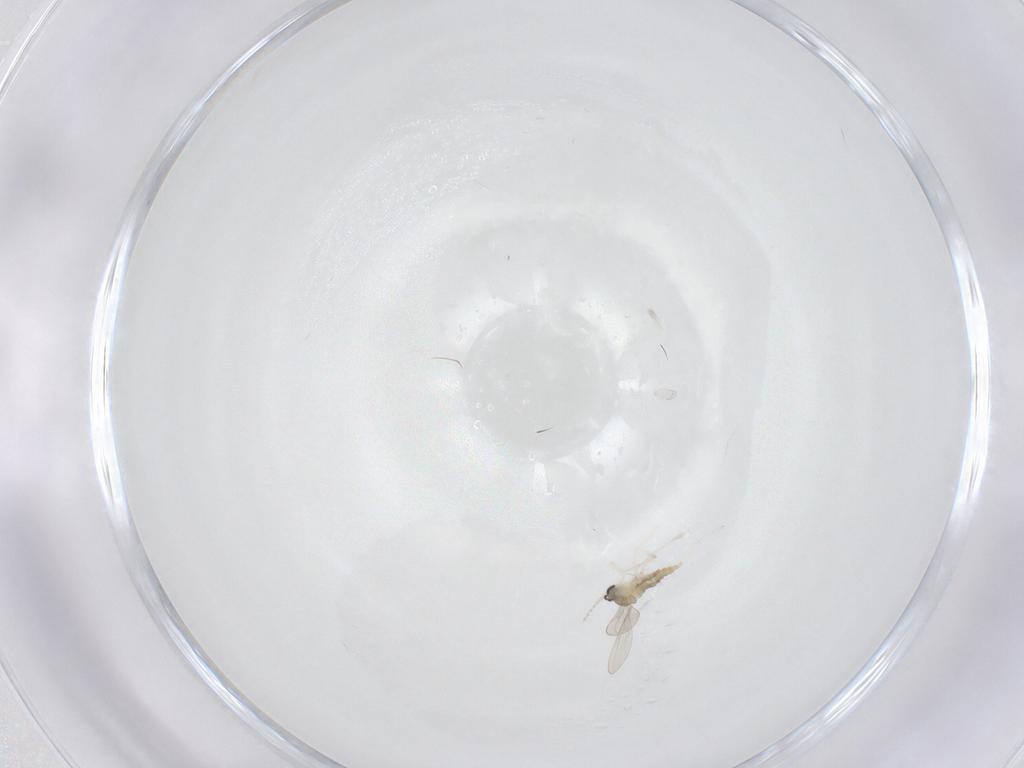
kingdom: Animalia
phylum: Arthropoda
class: Insecta
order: Diptera
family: Cecidomyiidae
